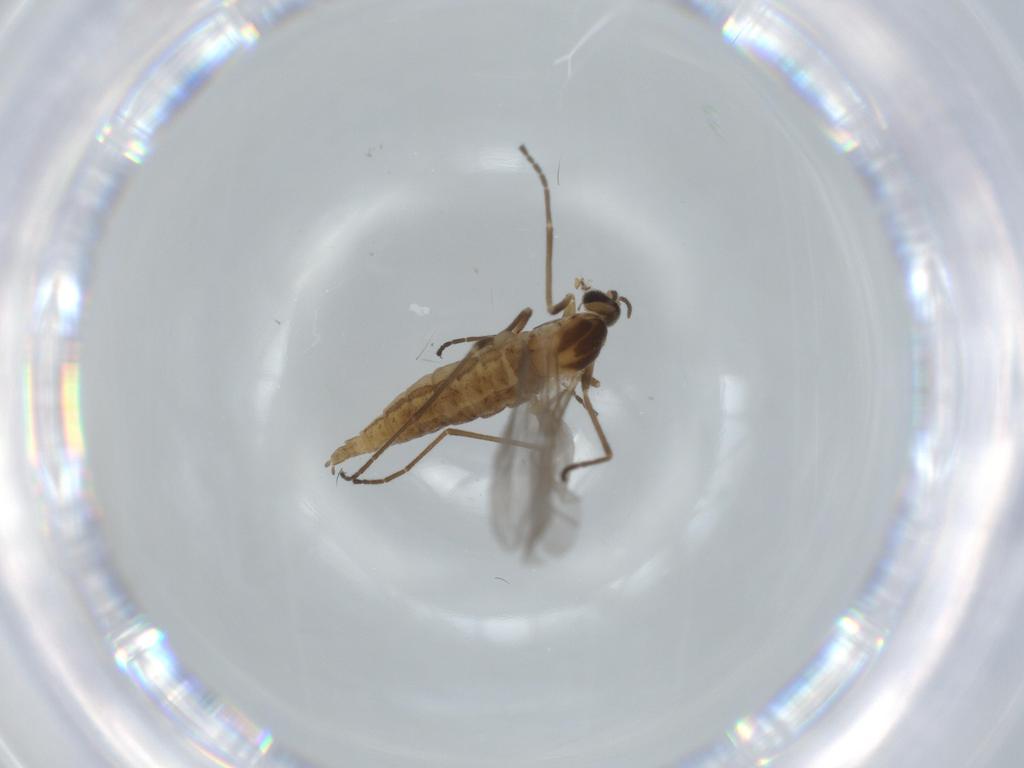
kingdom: Animalia
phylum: Arthropoda
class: Insecta
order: Diptera
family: Cecidomyiidae
